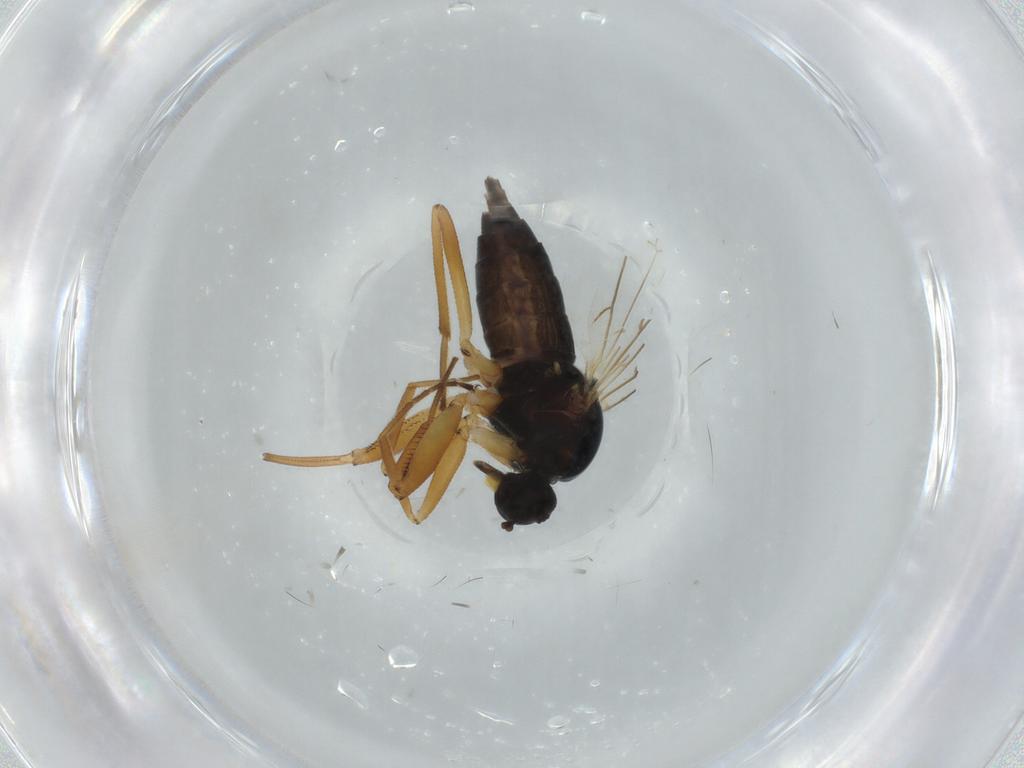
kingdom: Animalia
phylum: Arthropoda
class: Insecta
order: Diptera
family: Hybotidae
